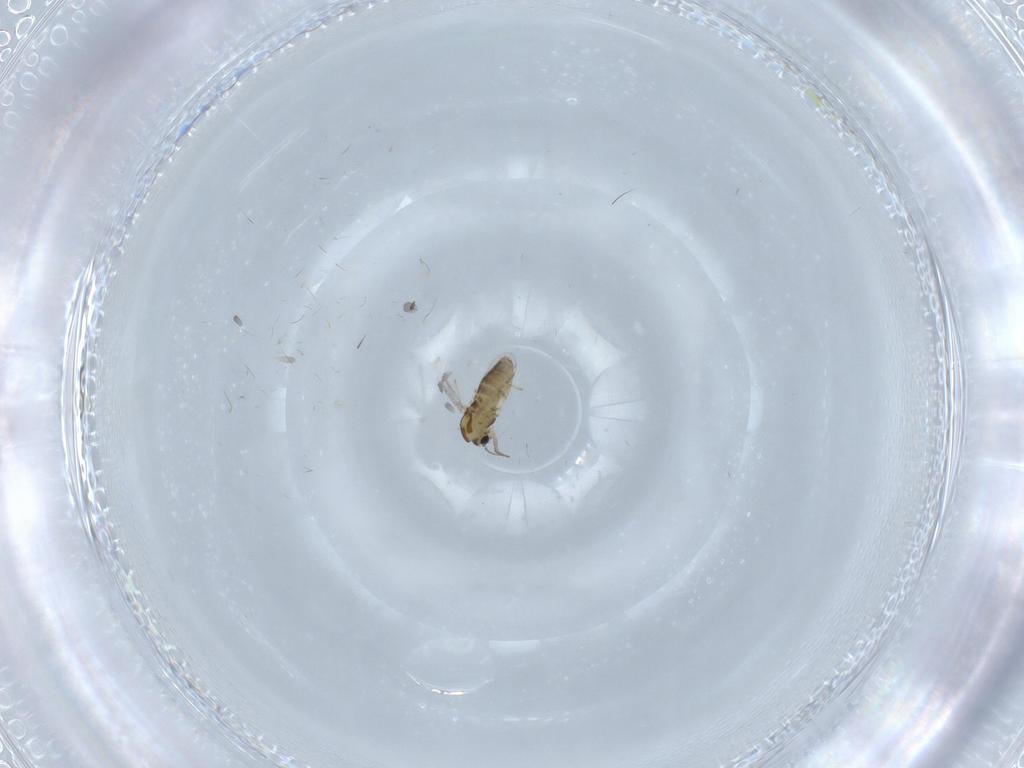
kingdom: Animalia
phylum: Arthropoda
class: Insecta
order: Diptera
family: Chironomidae
